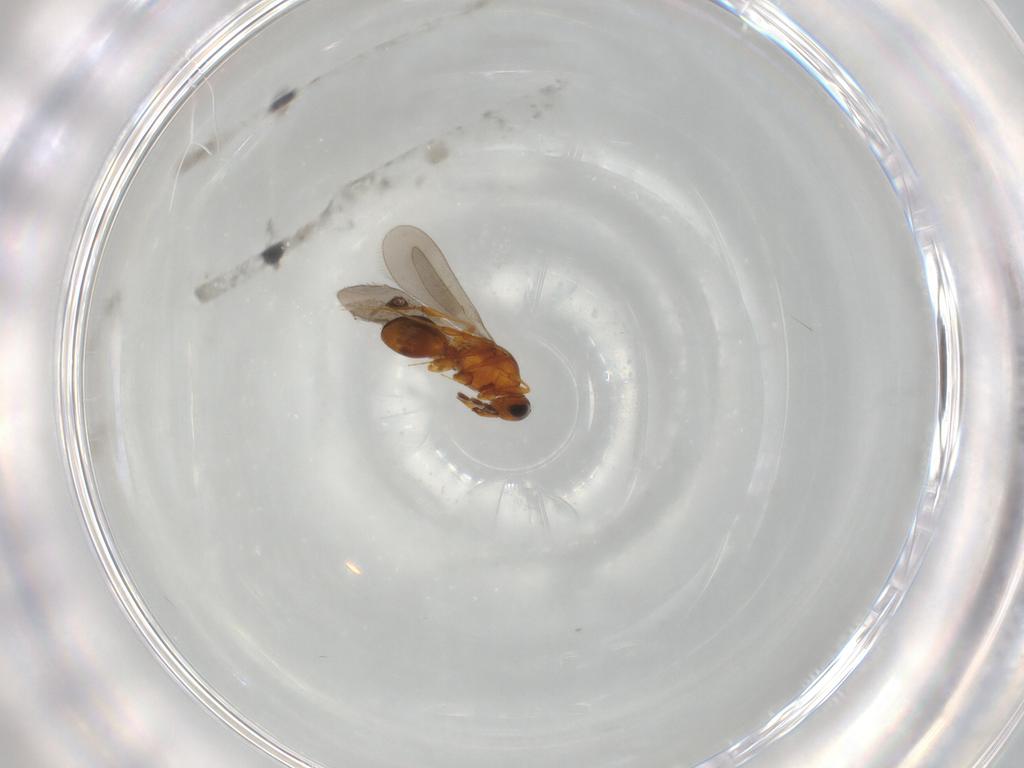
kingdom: Animalia
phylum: Arthropoda
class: Insecta
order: Hymenoptera
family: Platygastridae
